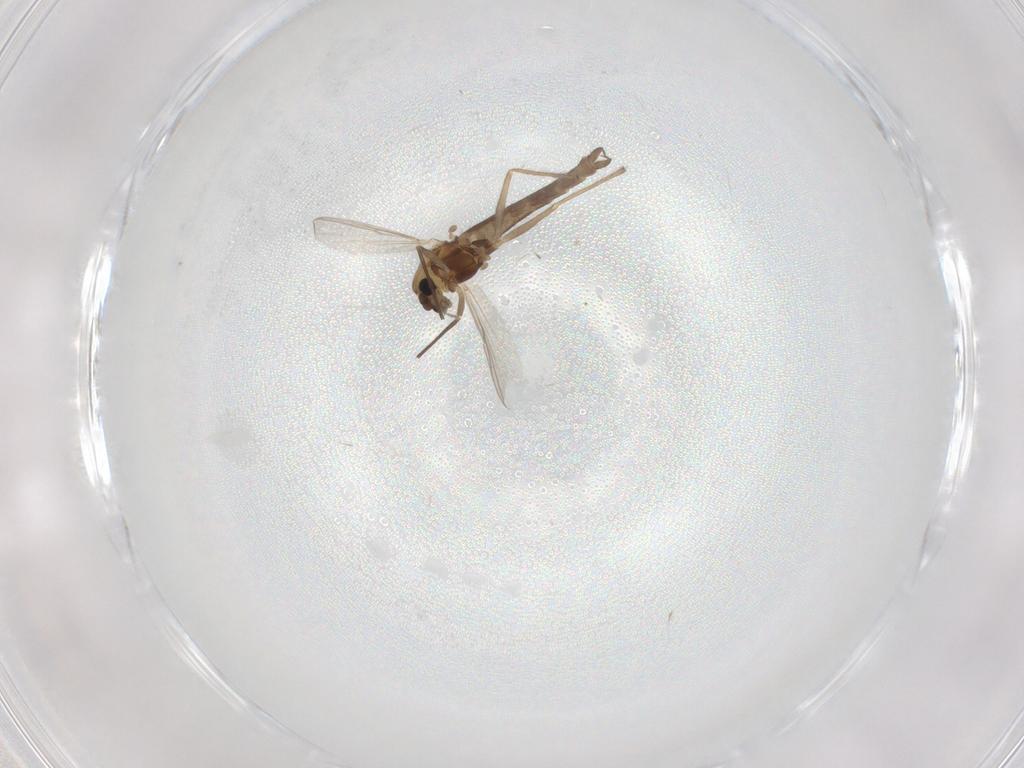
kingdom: Animalia
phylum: Arthropoda
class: Insecta
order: Diptera
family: Chironomidae
